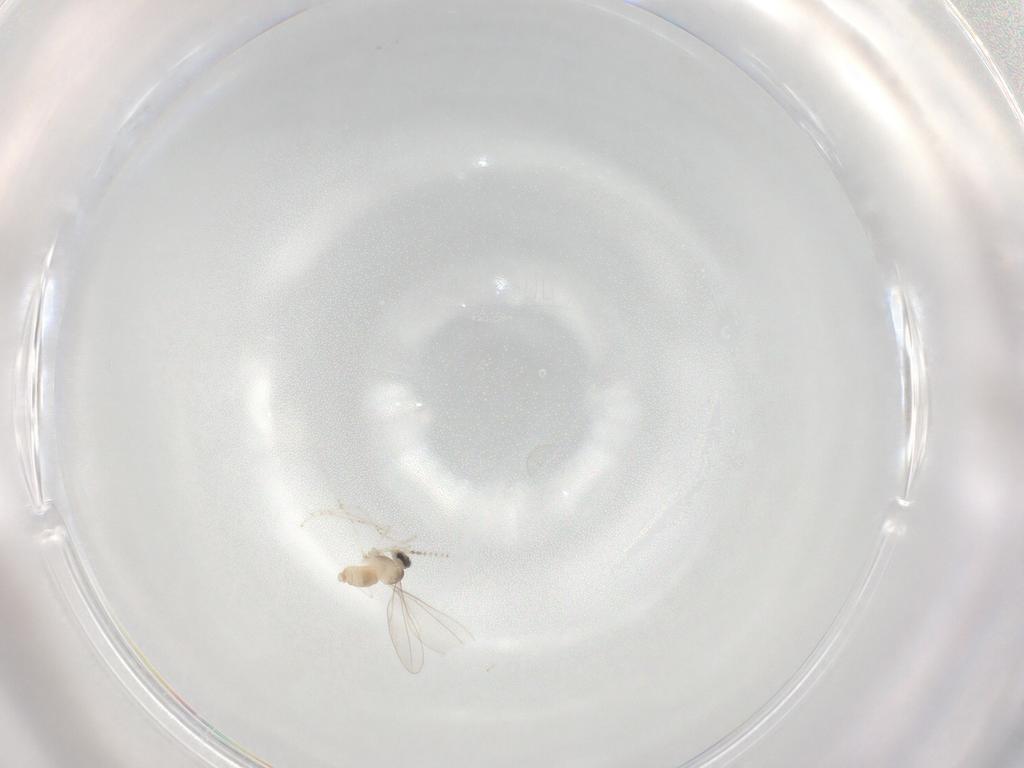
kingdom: Animalia
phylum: Arthropoda
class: Insecta
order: Diptera
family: Cecidomyiidae
